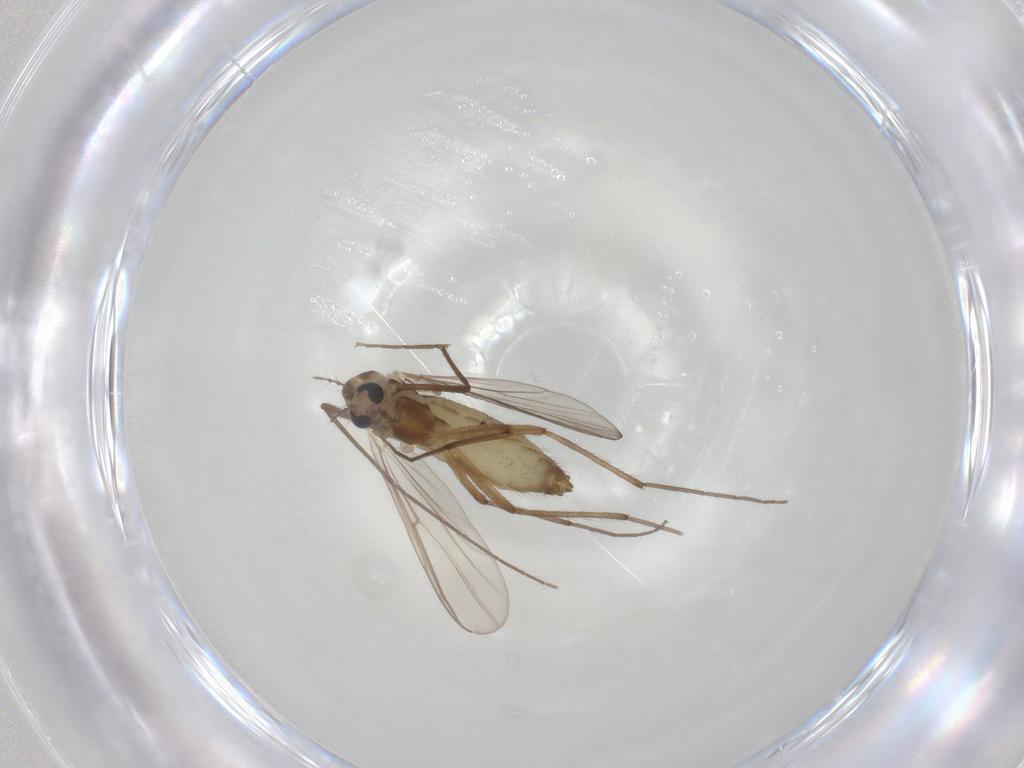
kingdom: Animalia
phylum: Arthropoda
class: Insecta
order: Diptera
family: Chironomidae
